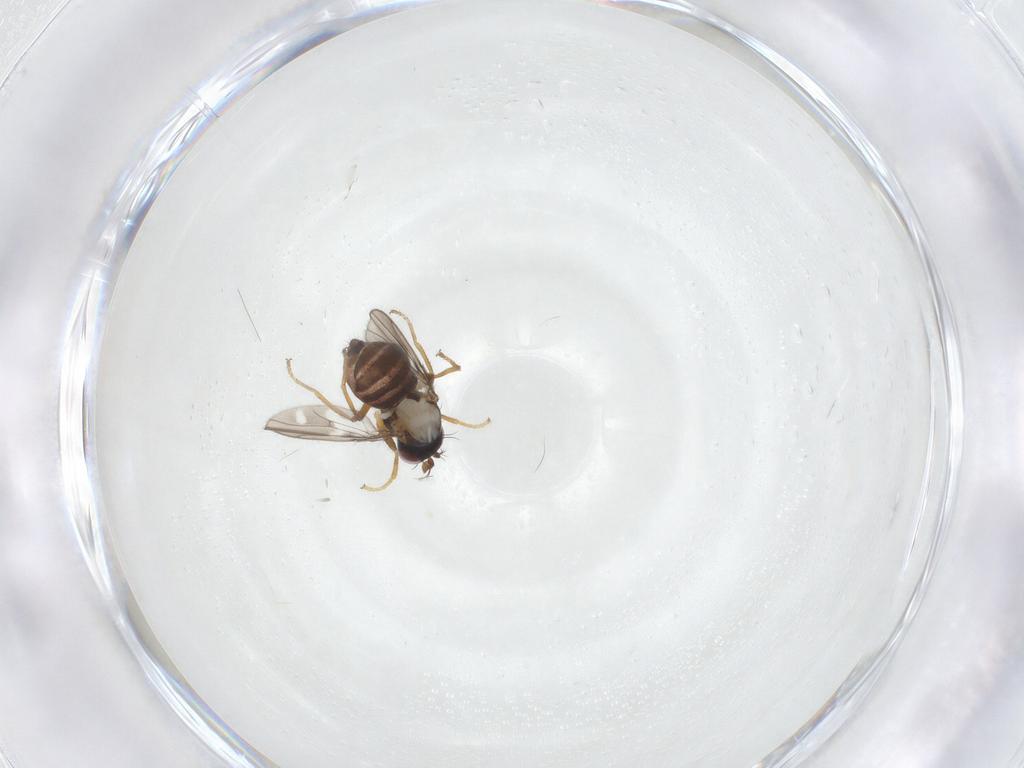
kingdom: Animalia
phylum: Arthropoda
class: Insecta
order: Diptera
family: Ephydridae
